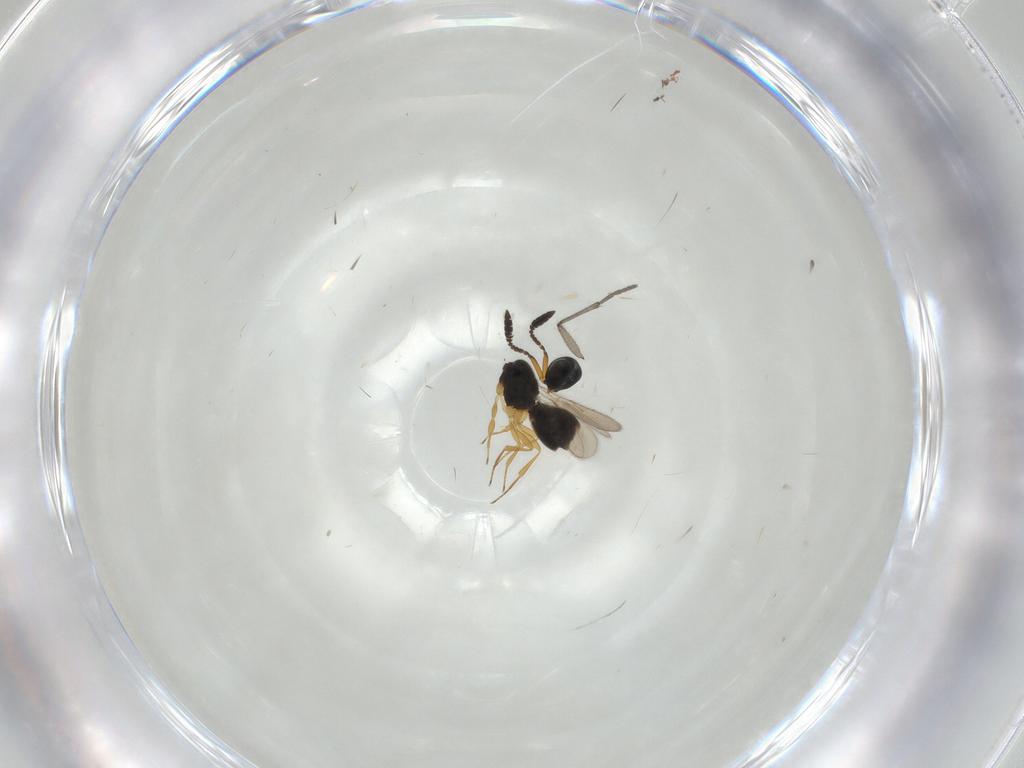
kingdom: Animalia
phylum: Arthropoda
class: Insecta
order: Hymenoptera
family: Scelionidae
